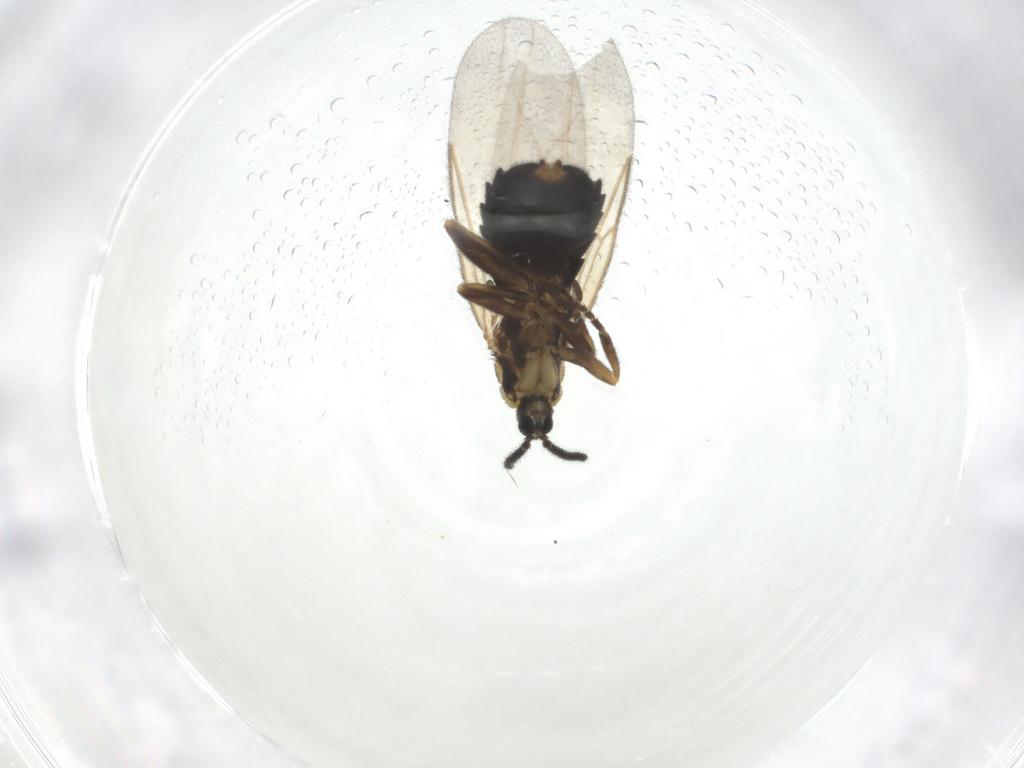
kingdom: Animalia
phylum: Arthropoda
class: Insecta
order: Diptera
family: Scatopsidae
